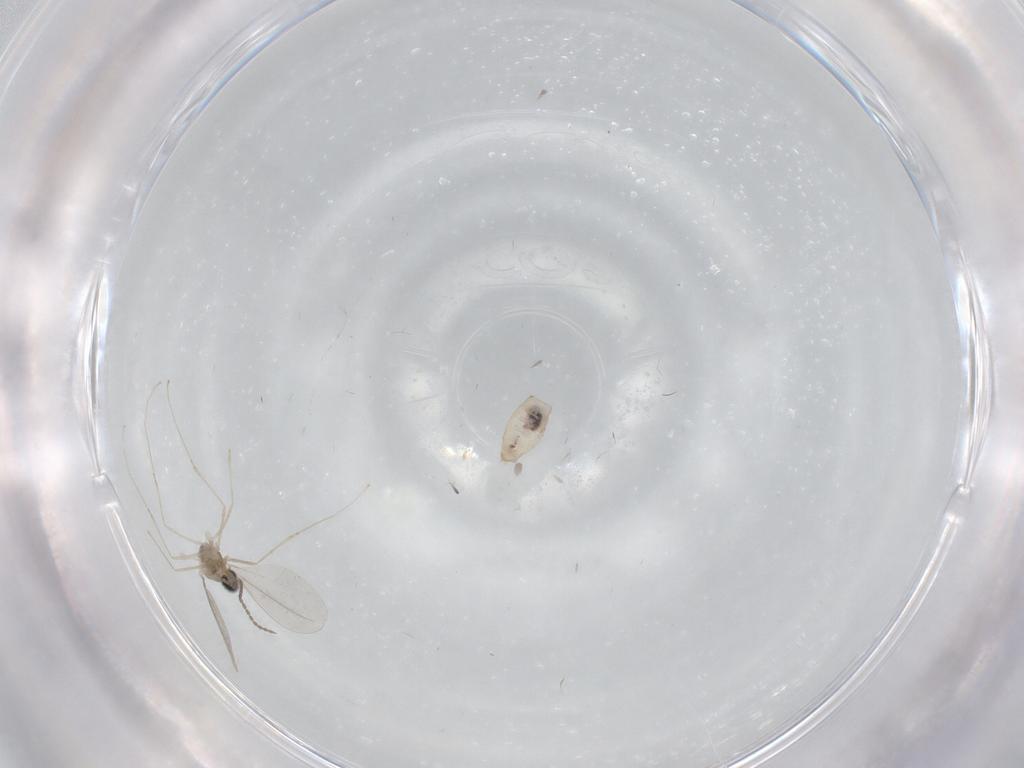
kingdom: Animalia
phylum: Arthropoda
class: Insecta
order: Diptera
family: Cecidomyiidae
